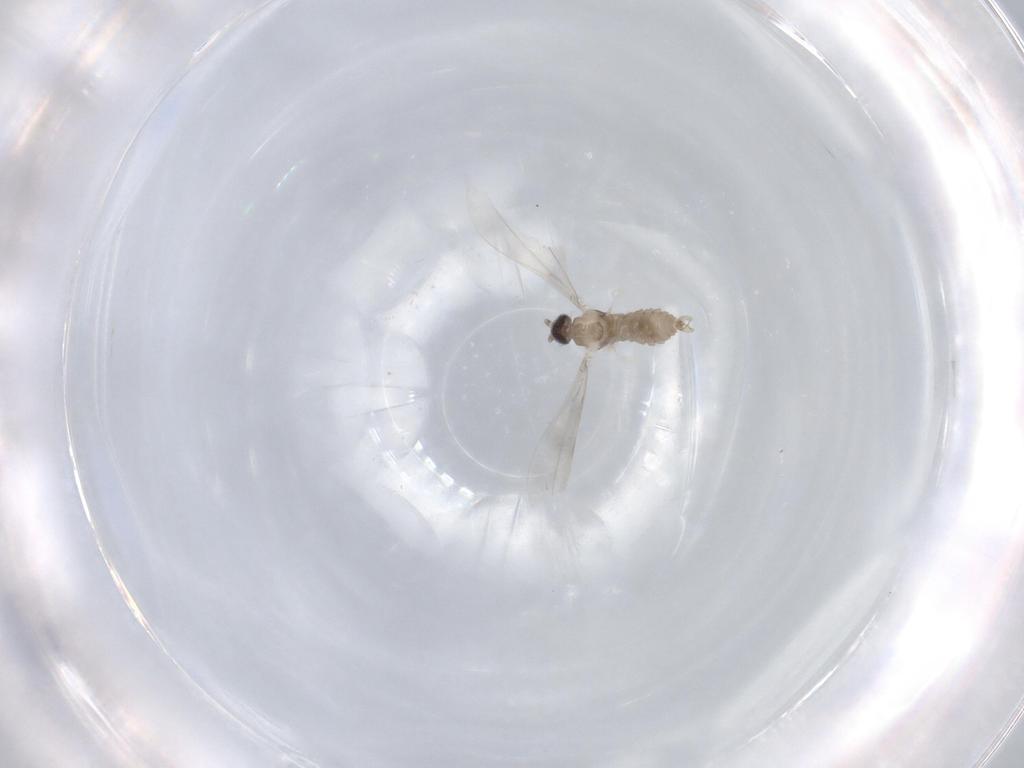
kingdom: Animalia
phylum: Arthropoda
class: Insecta
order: Diptera
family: Cecidomyiidae
